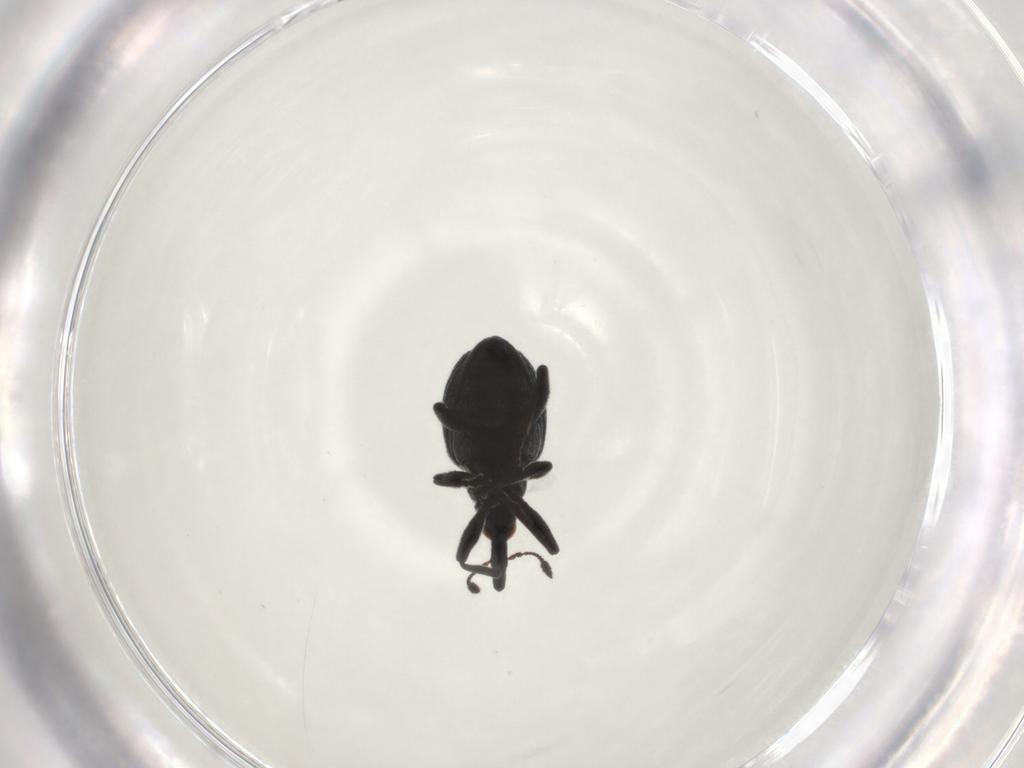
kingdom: Animalia
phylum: Arthropoda
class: Insecta
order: Coleoptera
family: Brentidae
